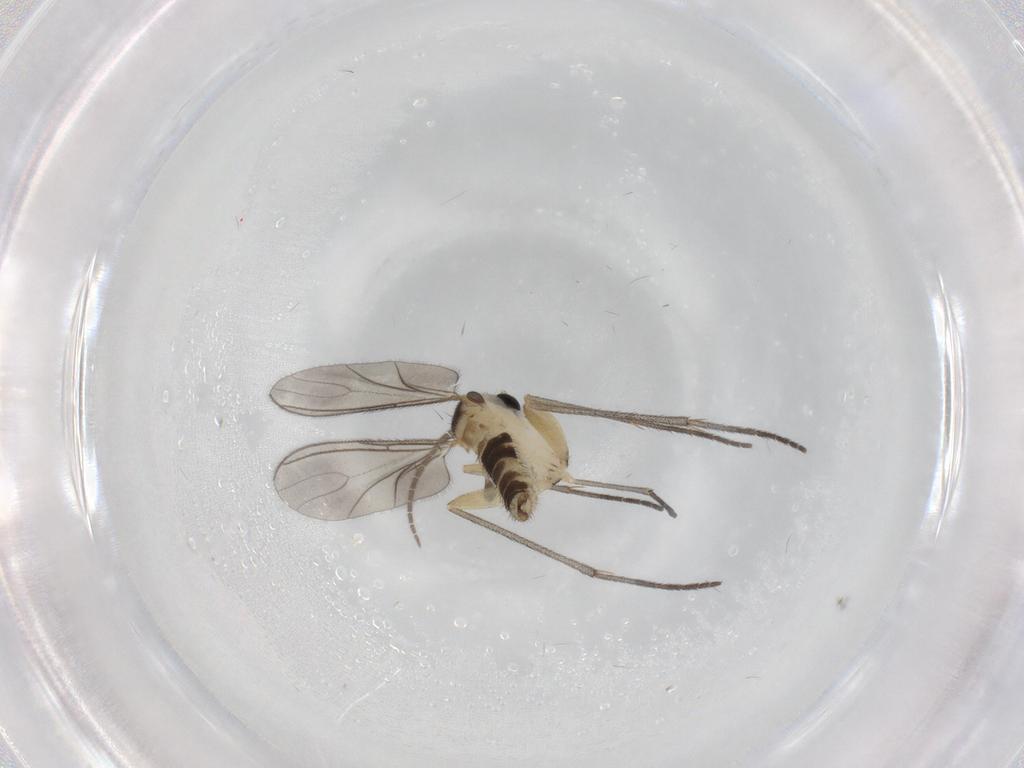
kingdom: Animalia
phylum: Arthropoda
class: Insecta
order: Diptera
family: Sciaridae
